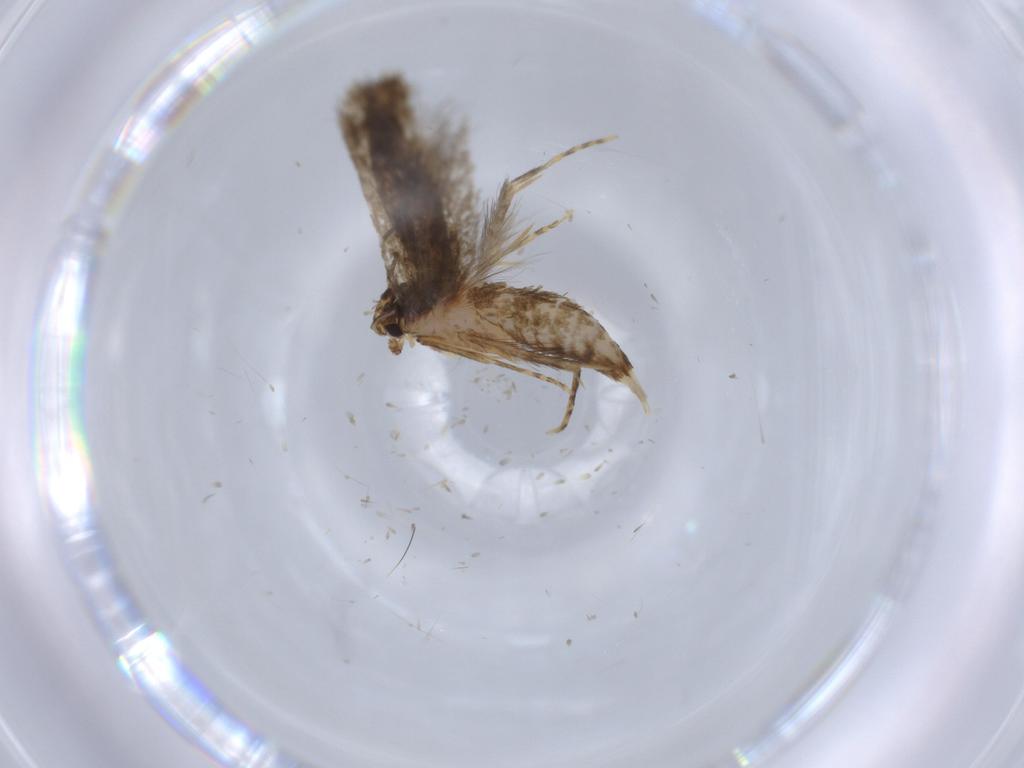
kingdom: Animalia
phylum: Arthropoda
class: Insecta
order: Lepidoptera
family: Tineidae
